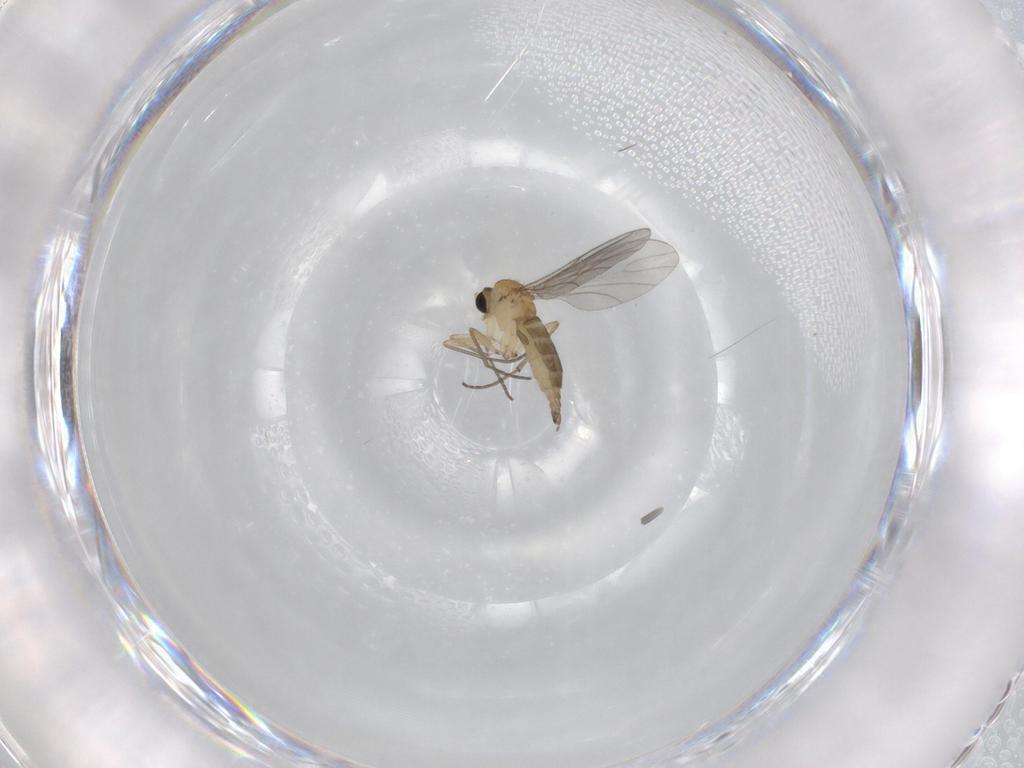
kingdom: Animalia
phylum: Arthropoda
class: Insecta
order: Diptera
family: Sciaridae
